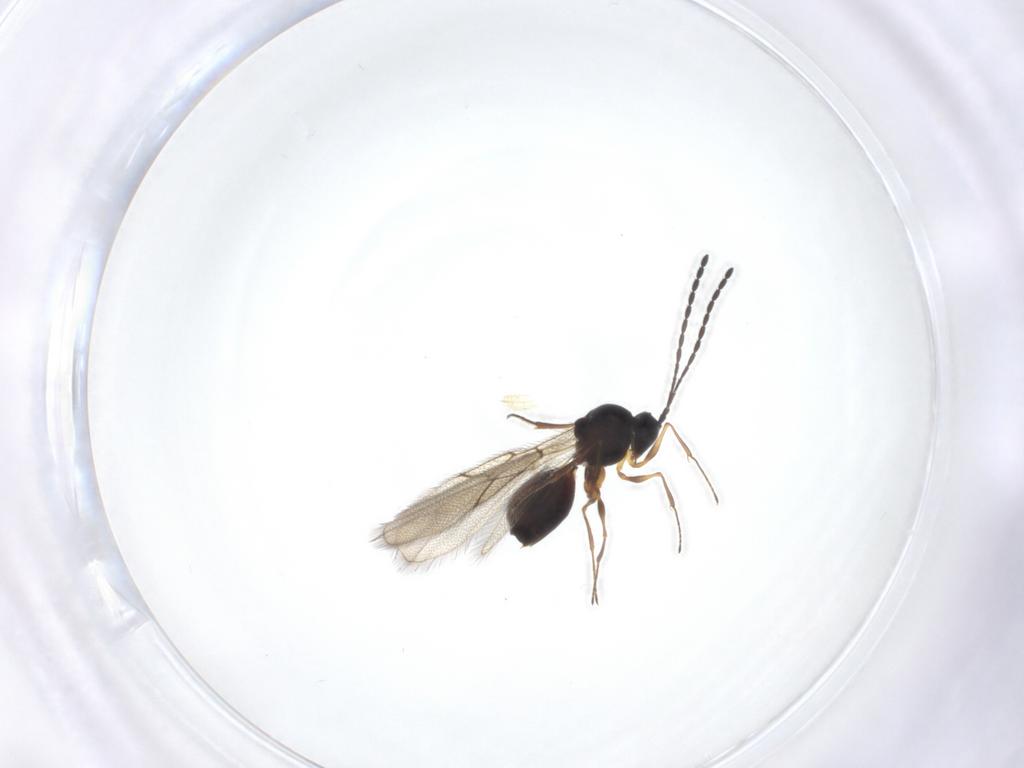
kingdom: Animalia
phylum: Arthropoda
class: Insecta
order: Hymenoptera
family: Figitidae
